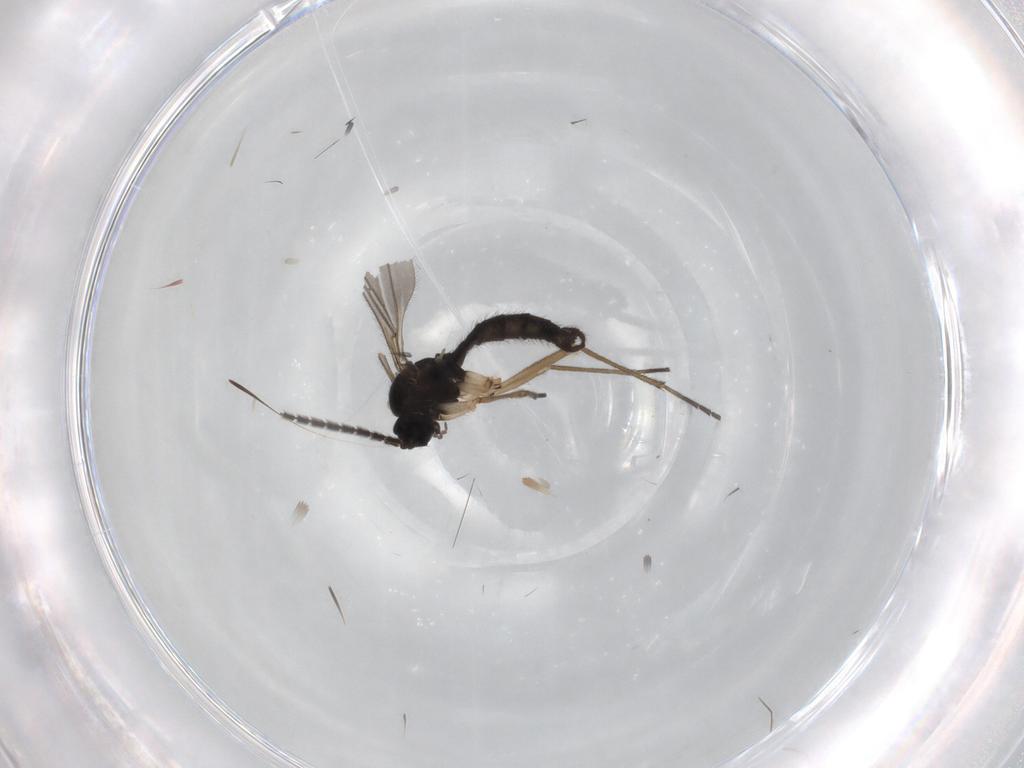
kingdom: Animalia
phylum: Arthropoda
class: Insecta
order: Diptera
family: Sciaridae
